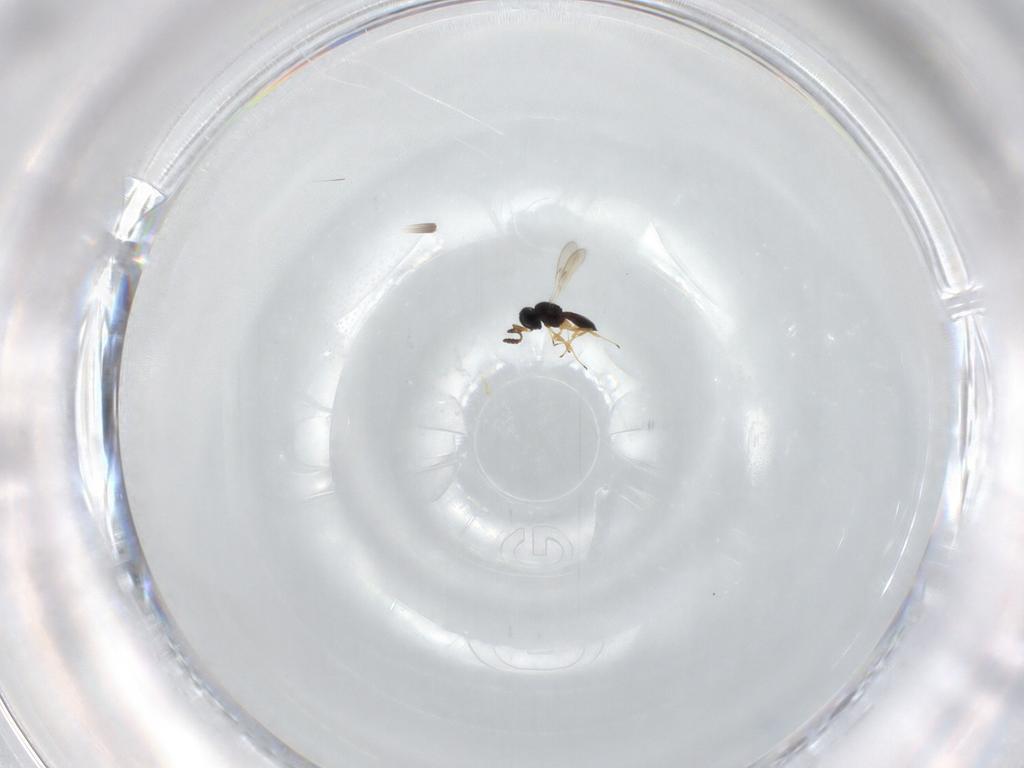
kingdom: Animalia
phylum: Arthropoda
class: Insecta
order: Hymenoptera
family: Scelionidae
